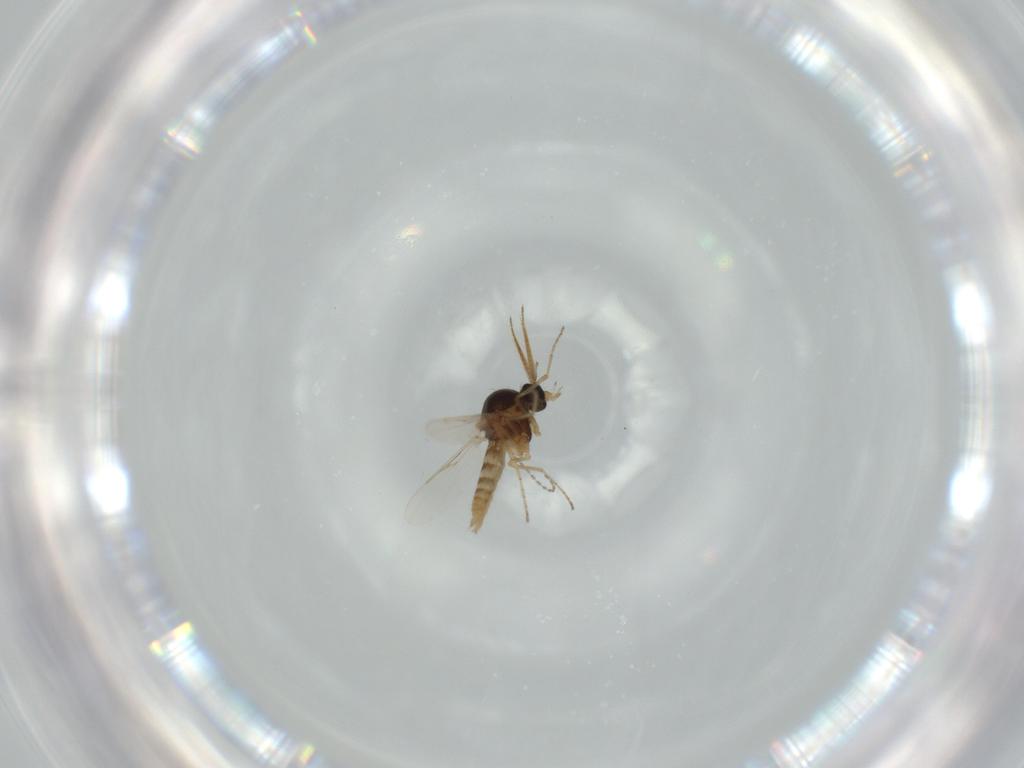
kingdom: Animalia
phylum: Arthropoda
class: Insecta
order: Diptera
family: Ceratopogonidae
